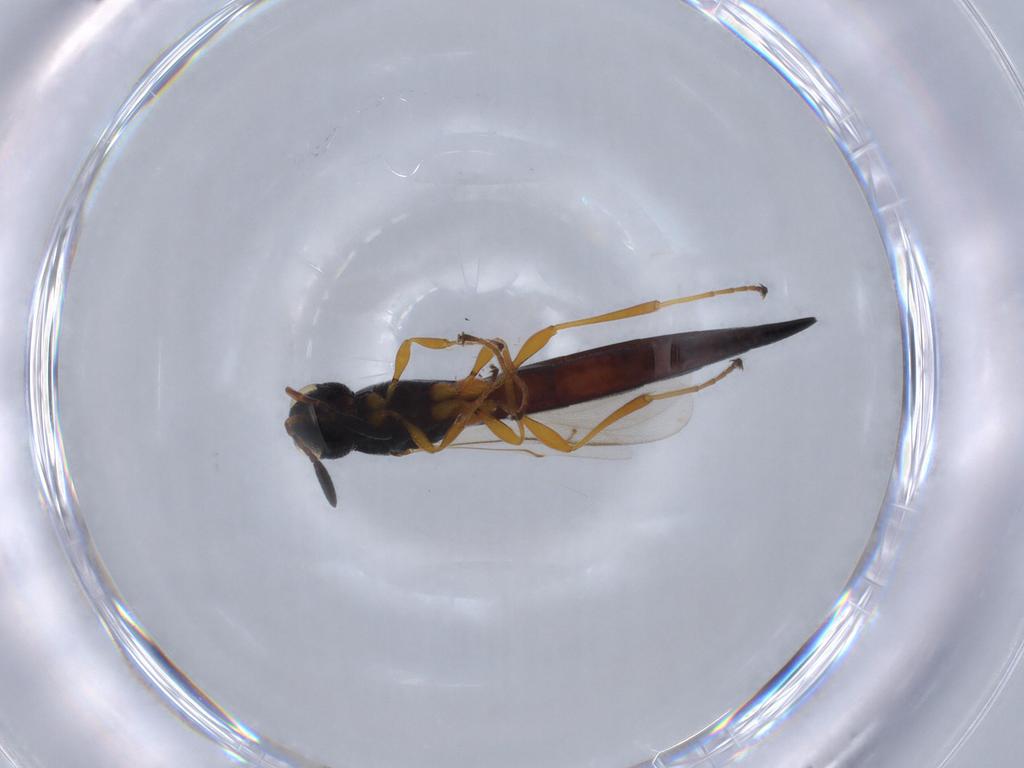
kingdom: Animalia
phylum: Arthropoda
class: Insecta
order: Hymenoptera
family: Scelionidae
